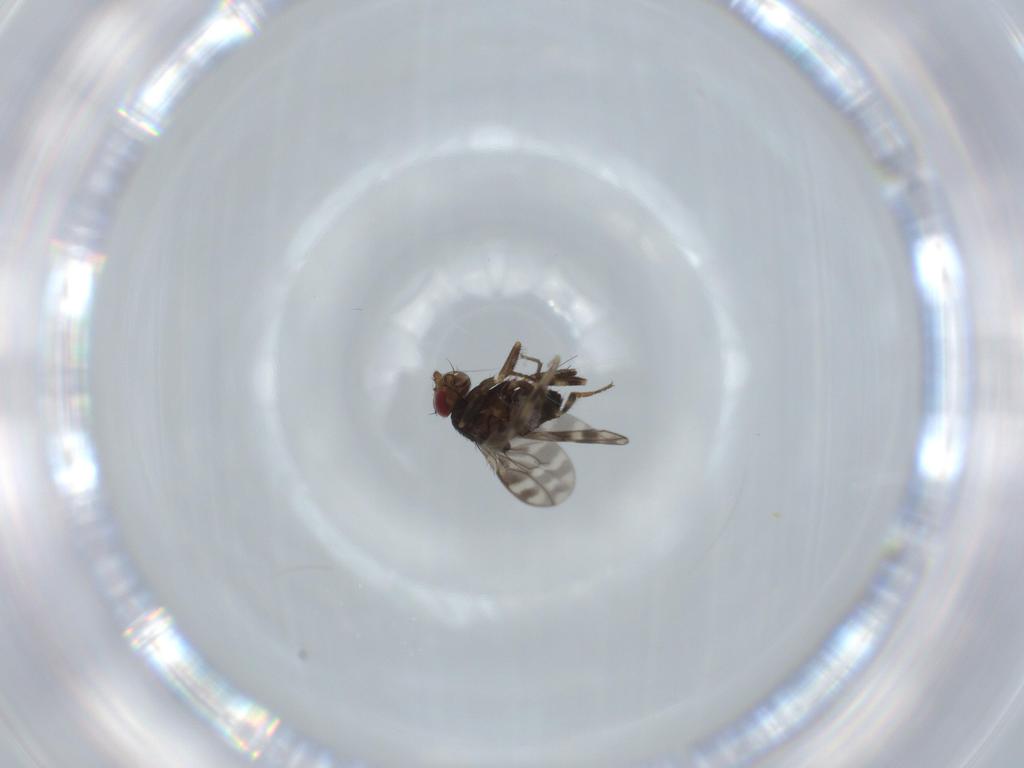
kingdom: Animalia
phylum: Arthropoda
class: Insecta
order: Diptera
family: Sphaeroceridae
